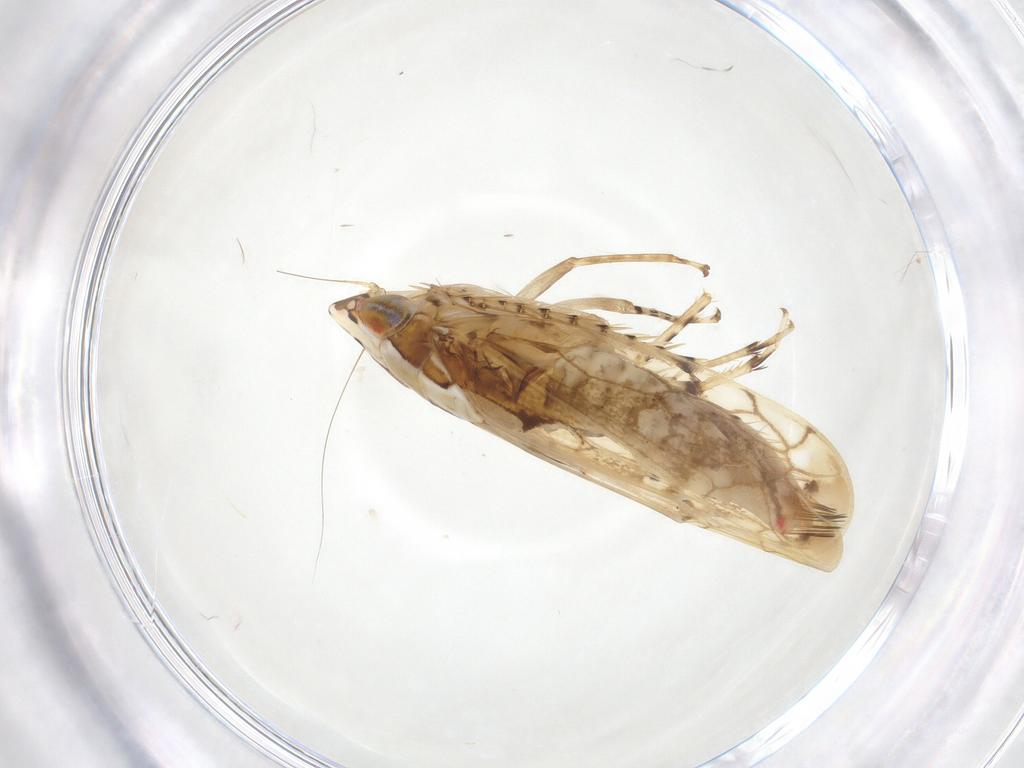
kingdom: Animalia
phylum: Arthropoda
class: Insecta
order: Hemiptera
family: Cicadellidae
